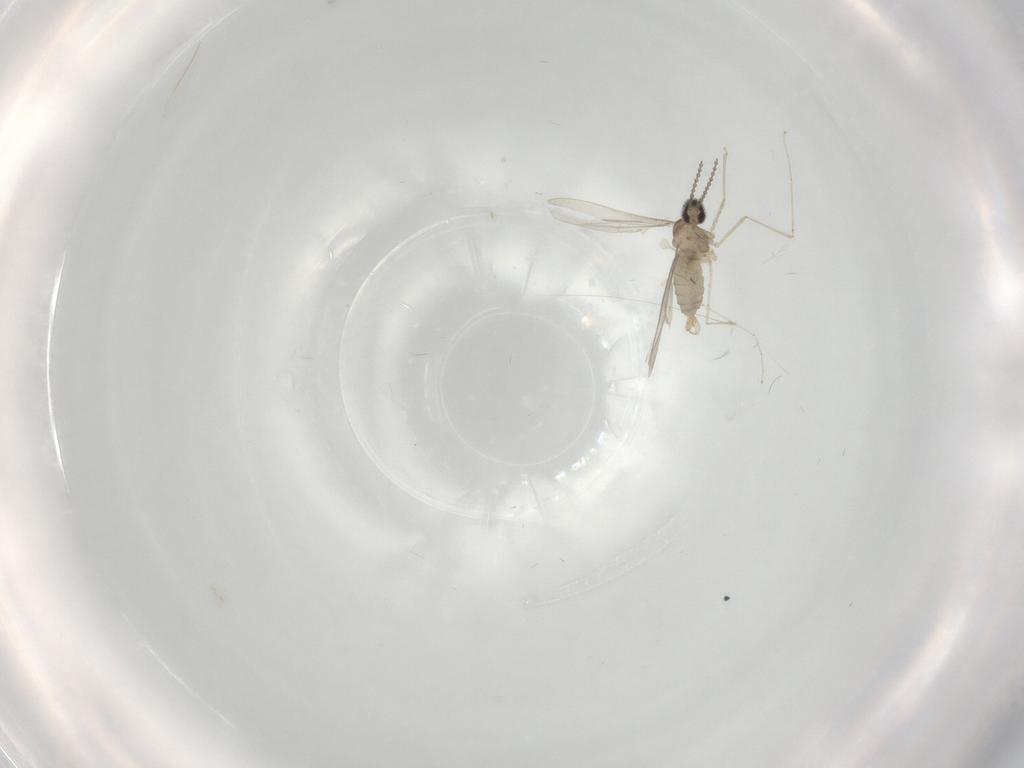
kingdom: Animalia
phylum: Arthropoda
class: Insecta
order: Diptera
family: Cecidomyiidae
